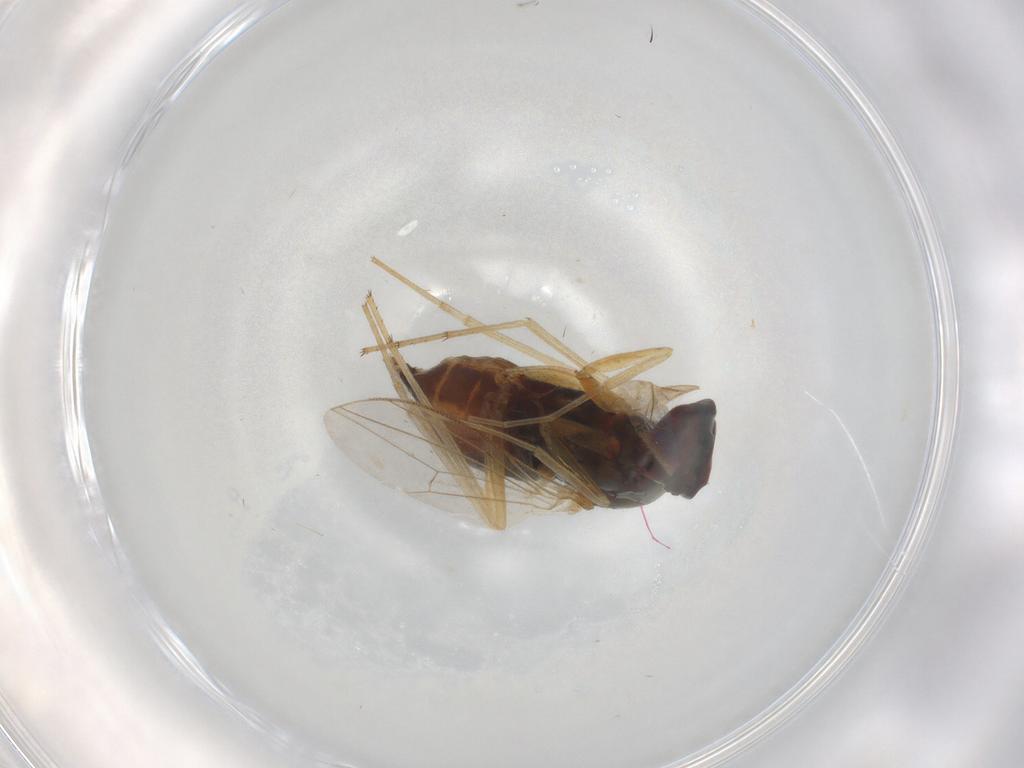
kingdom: Animalia
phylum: Arthropoda
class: Insecta
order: Diptera
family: Dolichopodidae
